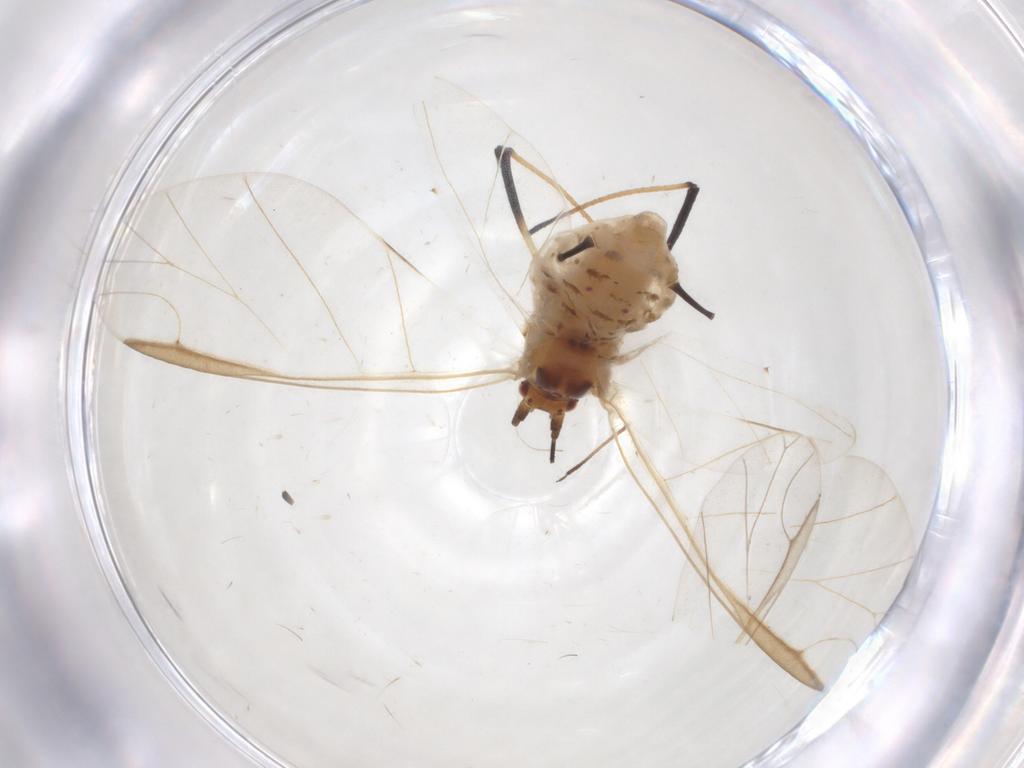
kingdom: Animalia
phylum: Arthropoda
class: Insecta
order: Hemiptera
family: Aphididae
